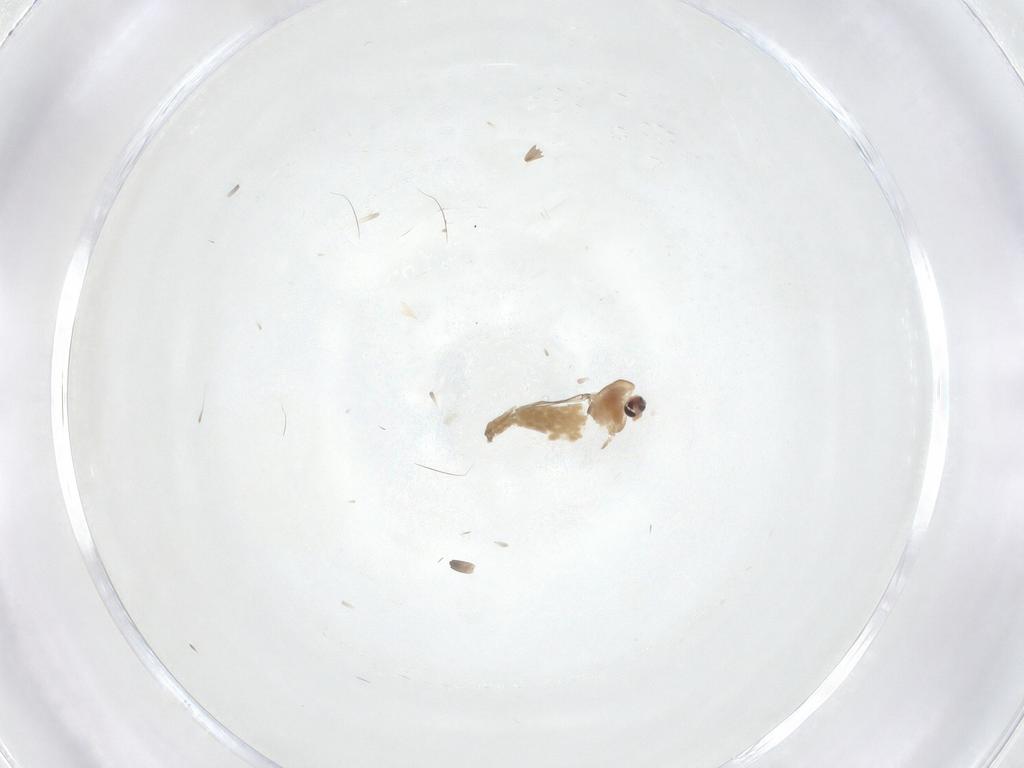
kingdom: Animalia
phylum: Arthropoda
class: Insecta
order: Diptera
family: Chironomidae
